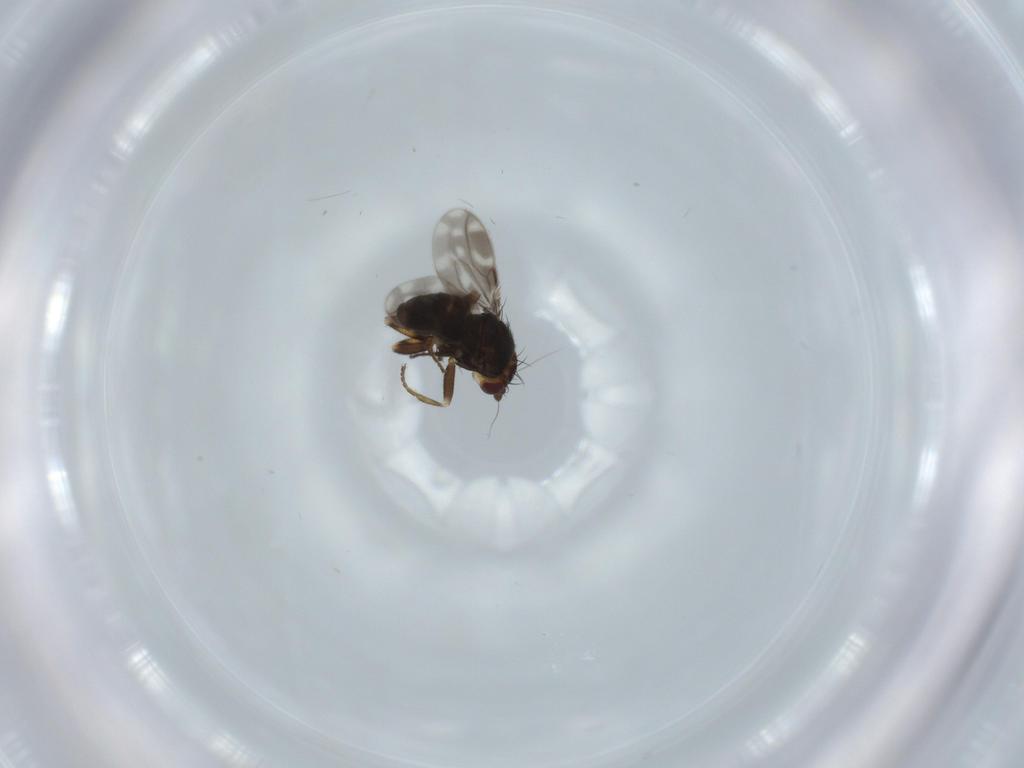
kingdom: Animalia
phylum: Arthropoda
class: Insecta
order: Diptera
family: Sphaeroceridae
